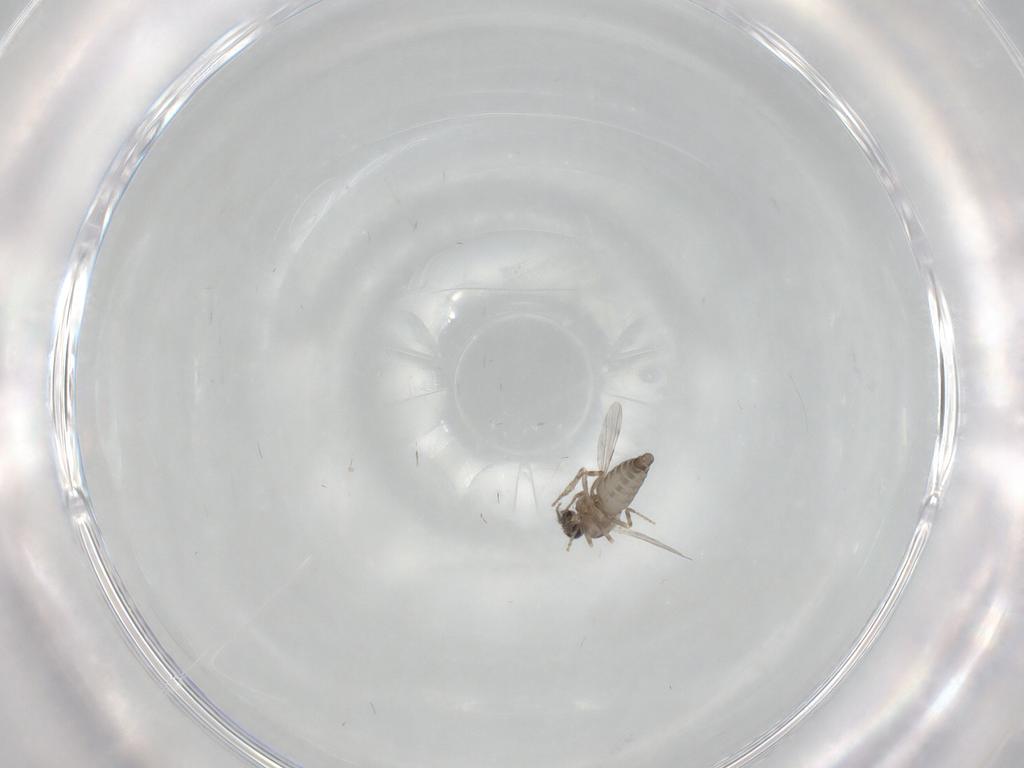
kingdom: Animalia
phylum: Arthropoda
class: Insecta
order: Diptera
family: Ceratopogonidae
